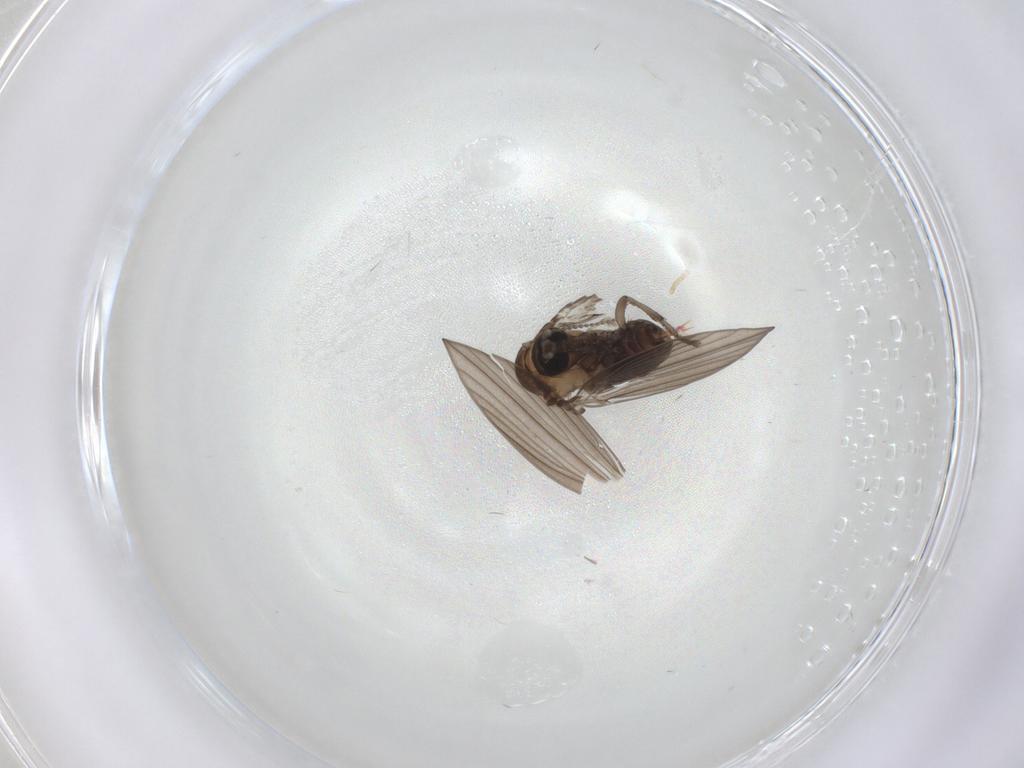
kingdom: Animalia
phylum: Arthropoda
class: Insecta
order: Diptera
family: Psychodidae
